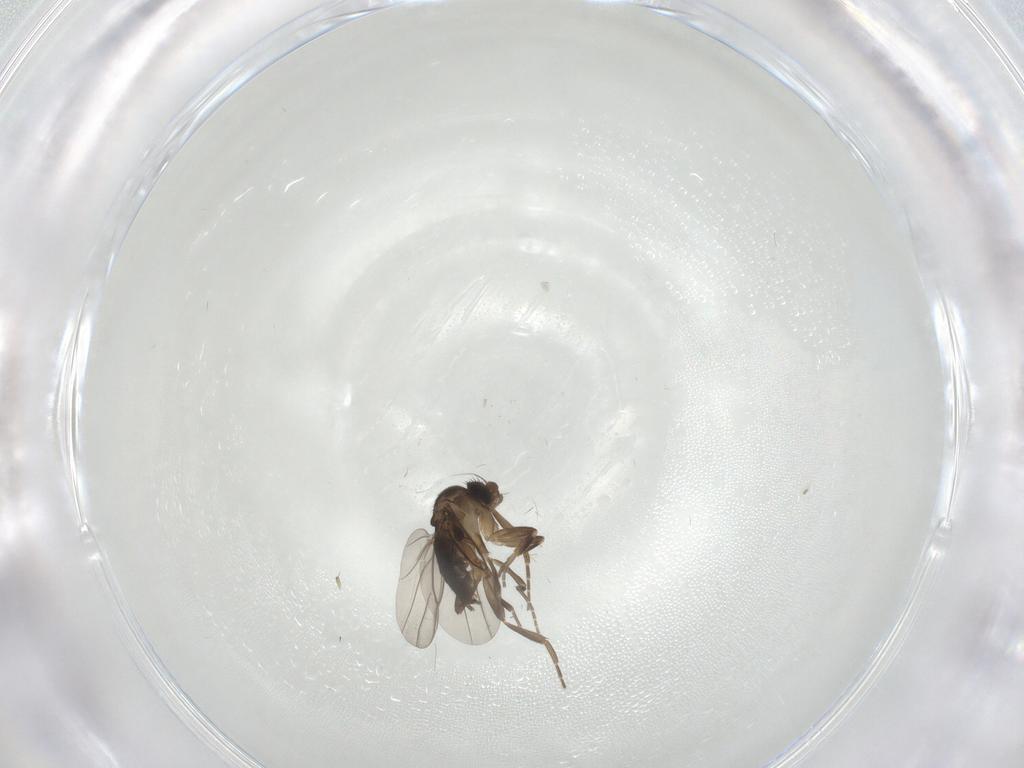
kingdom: Animalia
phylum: Arthropoda
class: Insecta
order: Diptera
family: Phoridae
